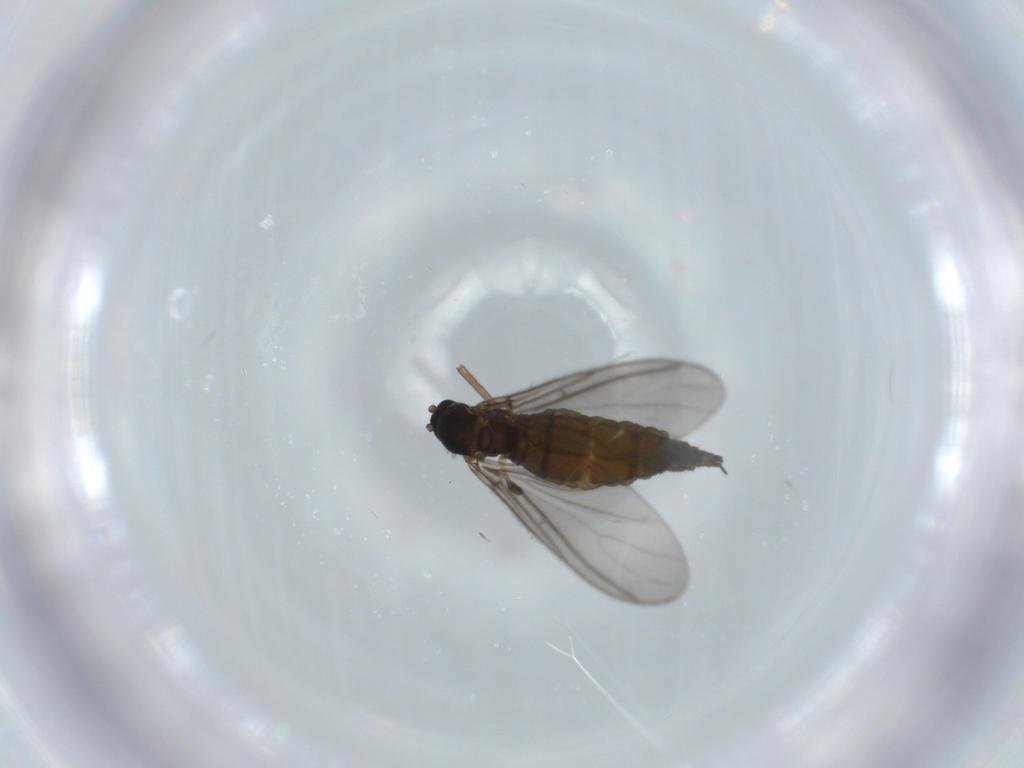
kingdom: Animalia
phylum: Arthropoda
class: Insecta
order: Diptera
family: Sciaridae
